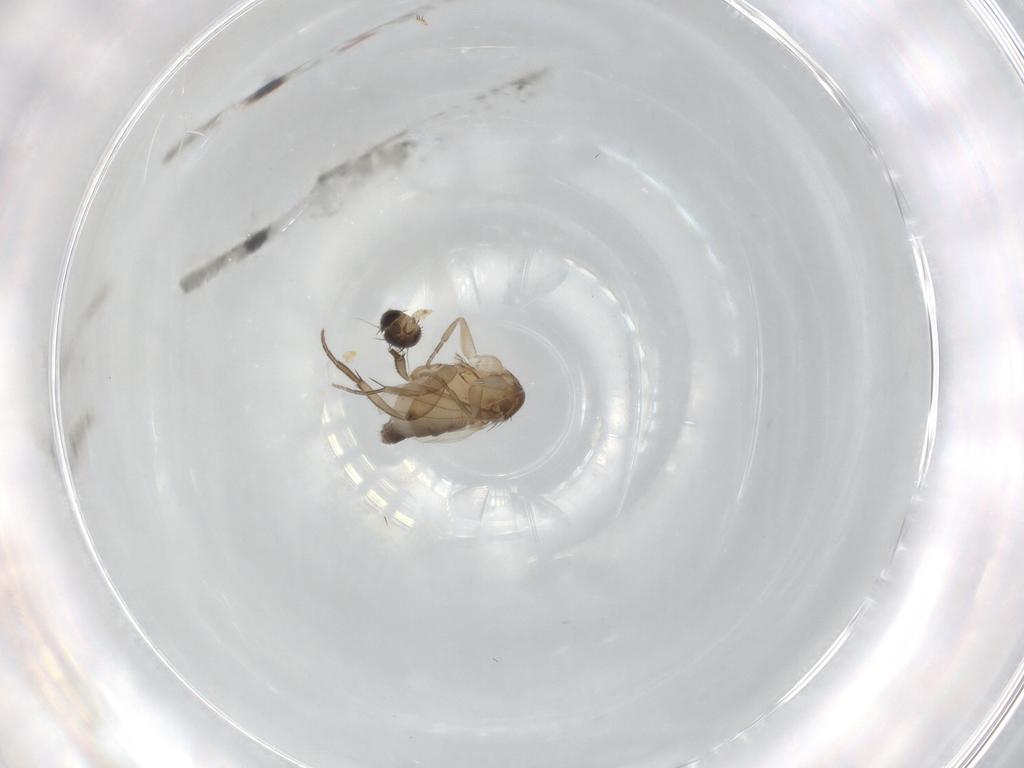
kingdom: Animalia
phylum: Arthropoda
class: Insecta
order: Diptera
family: Phoridae
